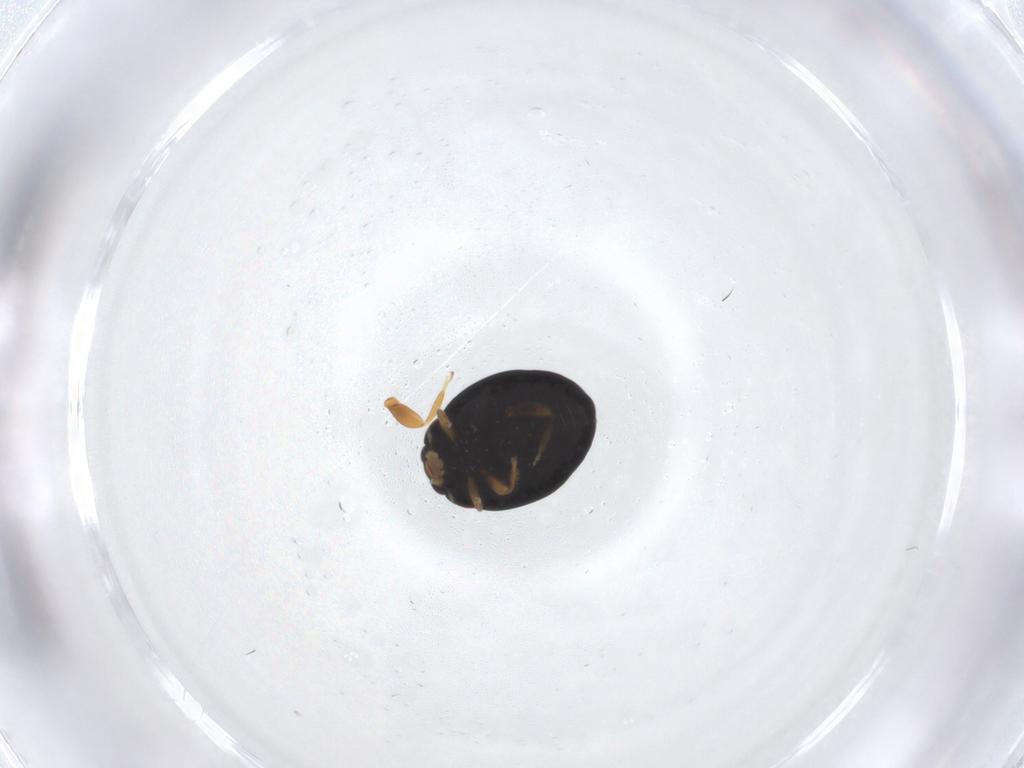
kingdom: Animalia
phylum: Arthropoda
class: Insecta
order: Coleoptera
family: Coccinellidae
